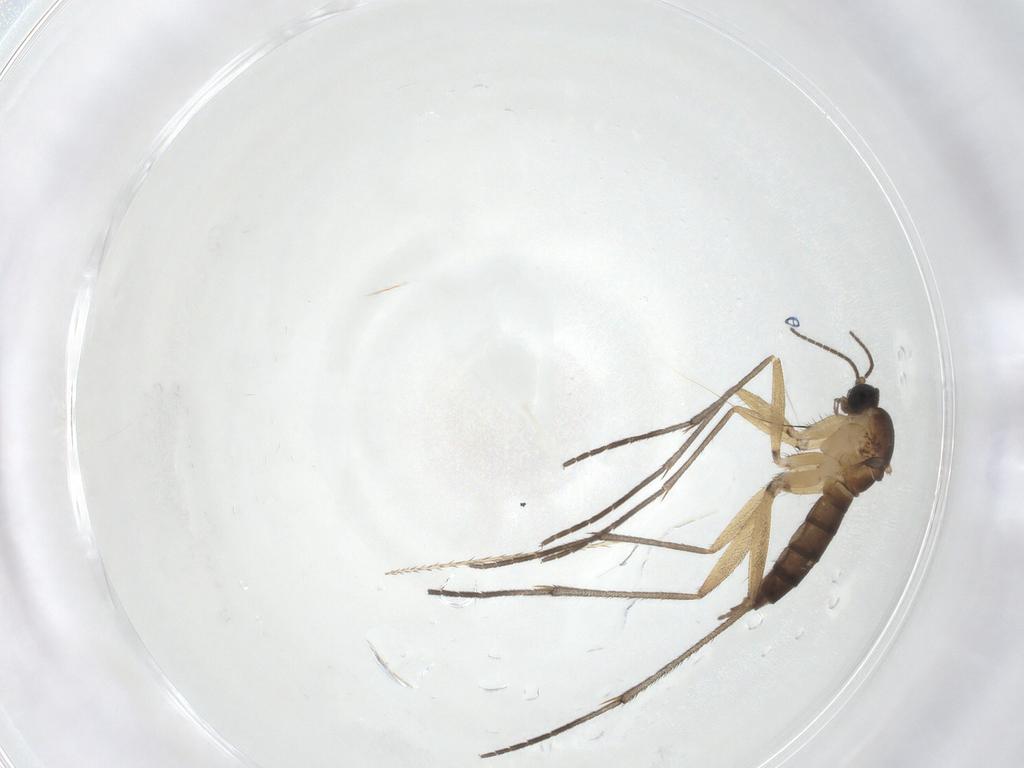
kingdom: Animalia
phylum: Arthropoda
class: Insecta
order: Diptera
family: Sciaridae
